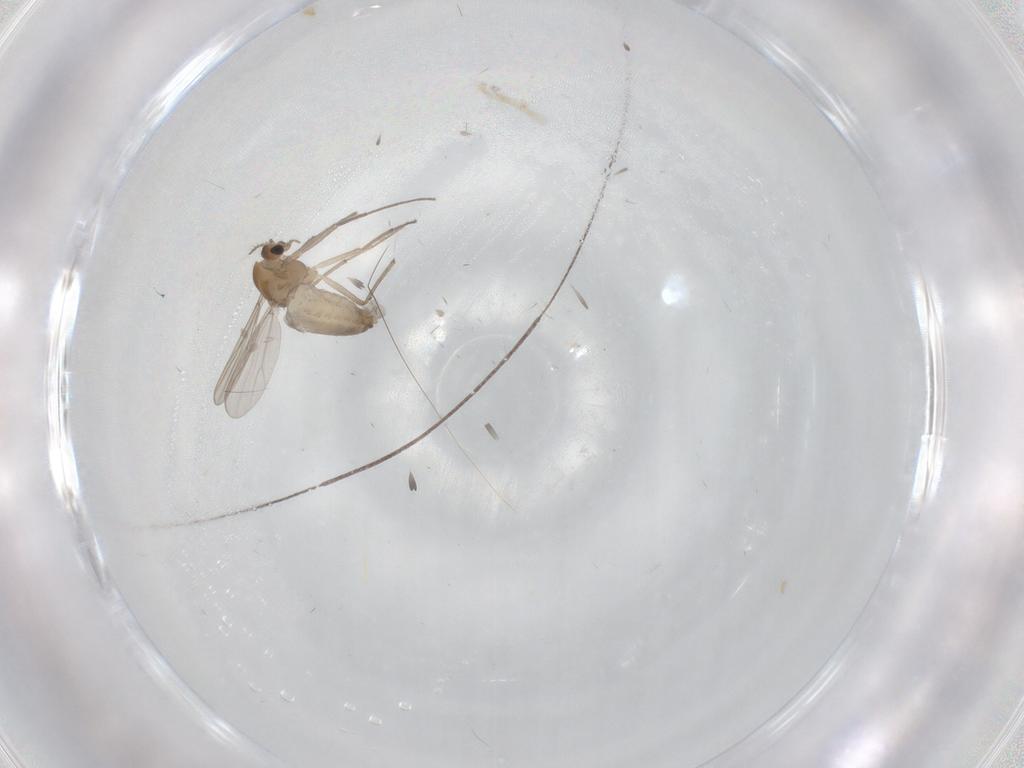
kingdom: Animalia
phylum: Arthropoda
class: Insecta
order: Diptera
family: Chironomidae
